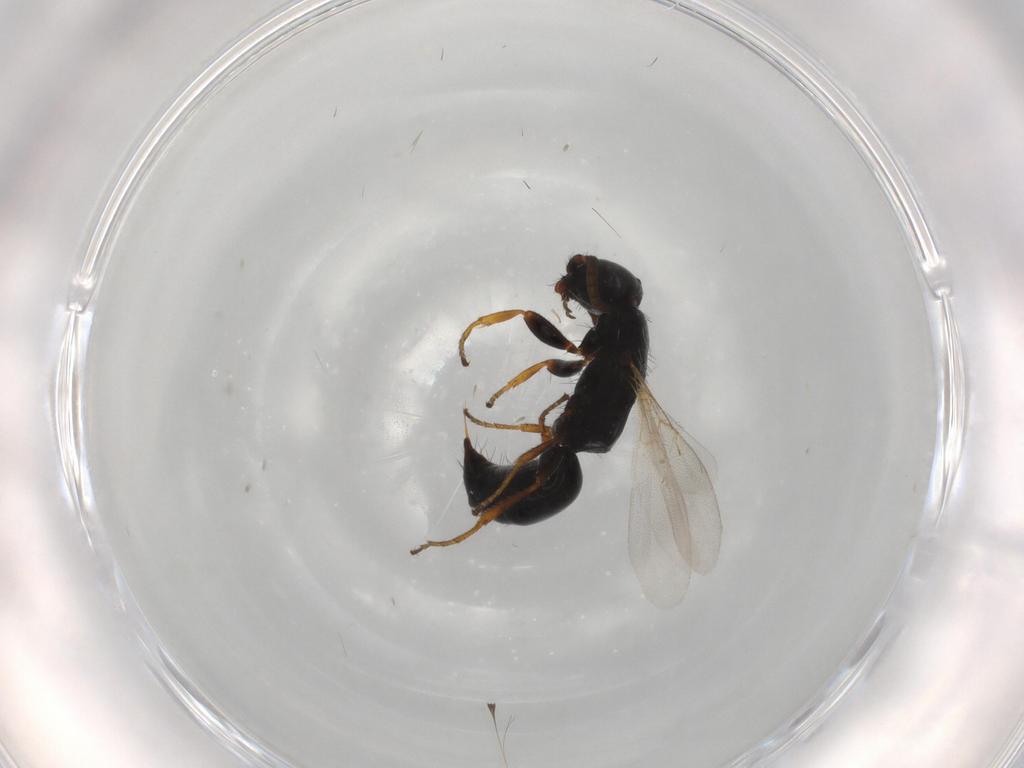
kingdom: Animalia
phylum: Arthropoda
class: Insecta
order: Hymenoptera
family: Bethylidae
